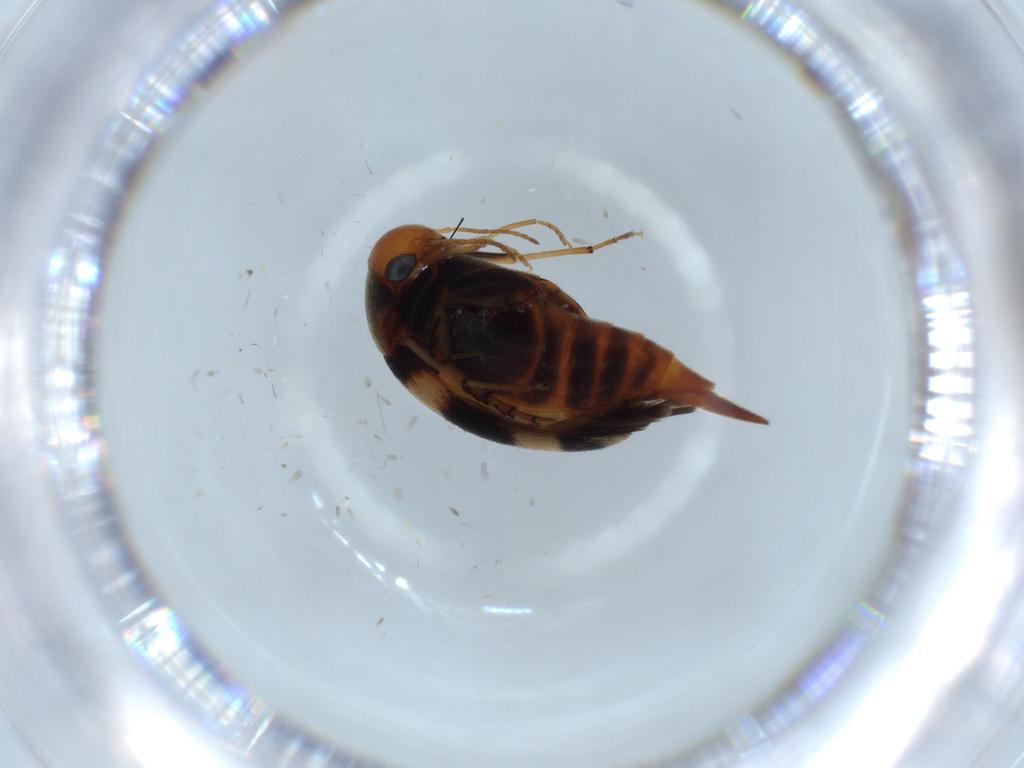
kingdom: Animalia
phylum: Arthropoda
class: Insecta
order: Coleoptera
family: Mordellidae
